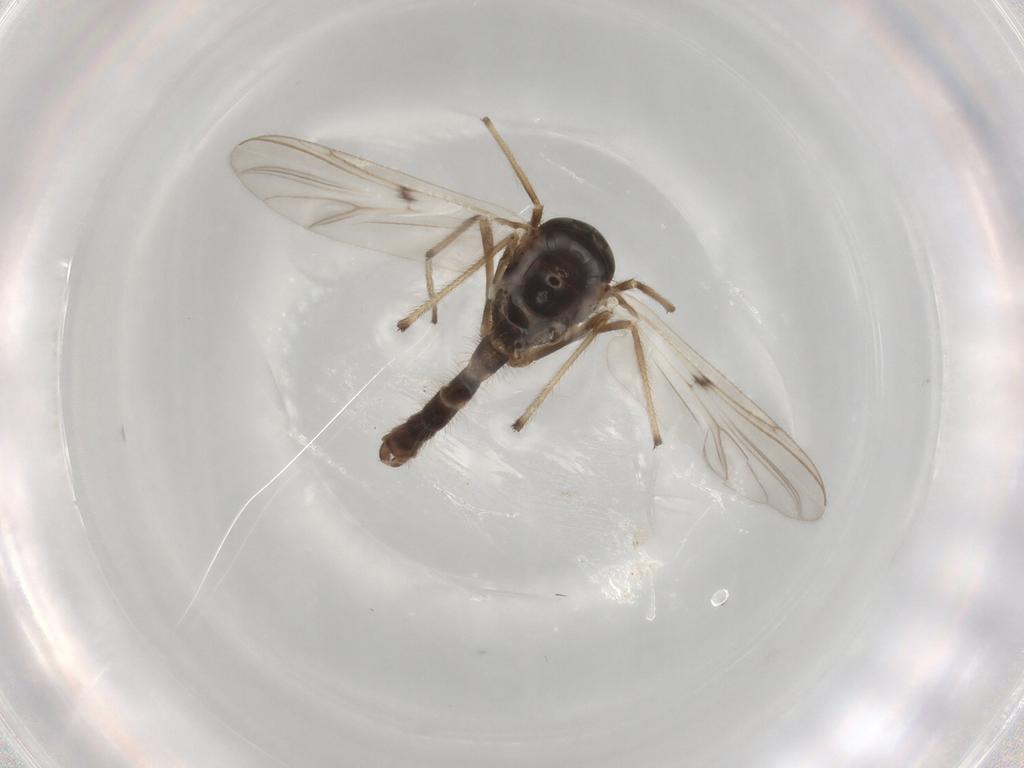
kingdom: Animalia
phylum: Arthropoda
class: Insecta
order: Diptera
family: Chironomidae
